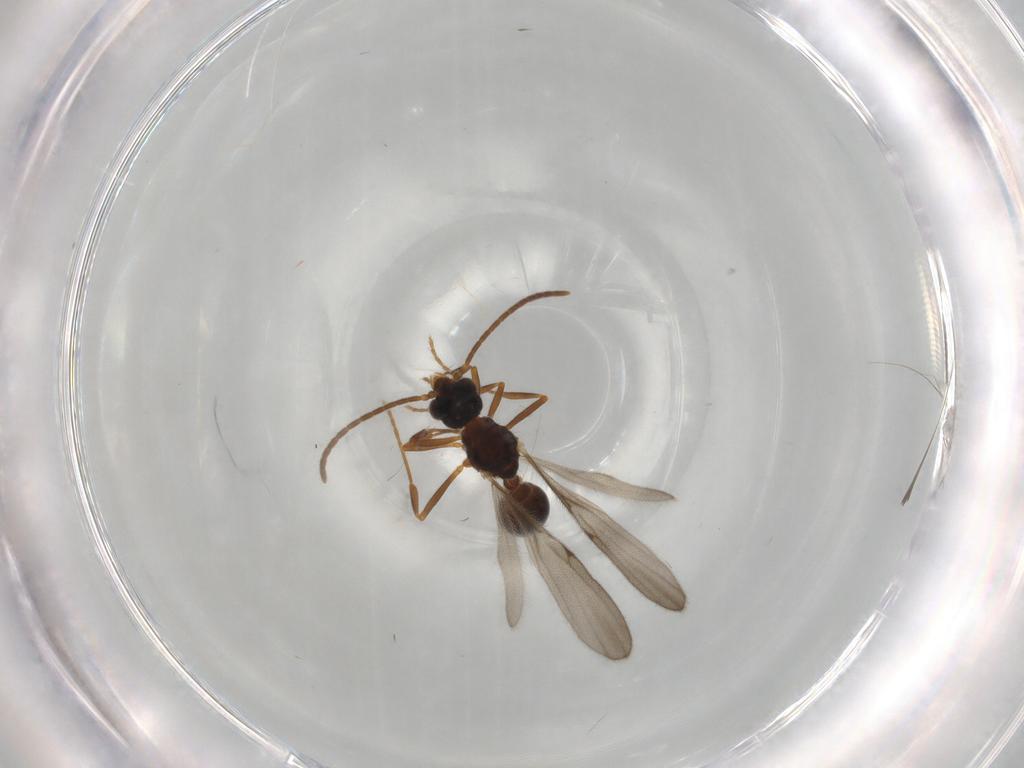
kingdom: Animalia
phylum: Arthropoda
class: Insecta
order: Hymenoptera
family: Formicidae
